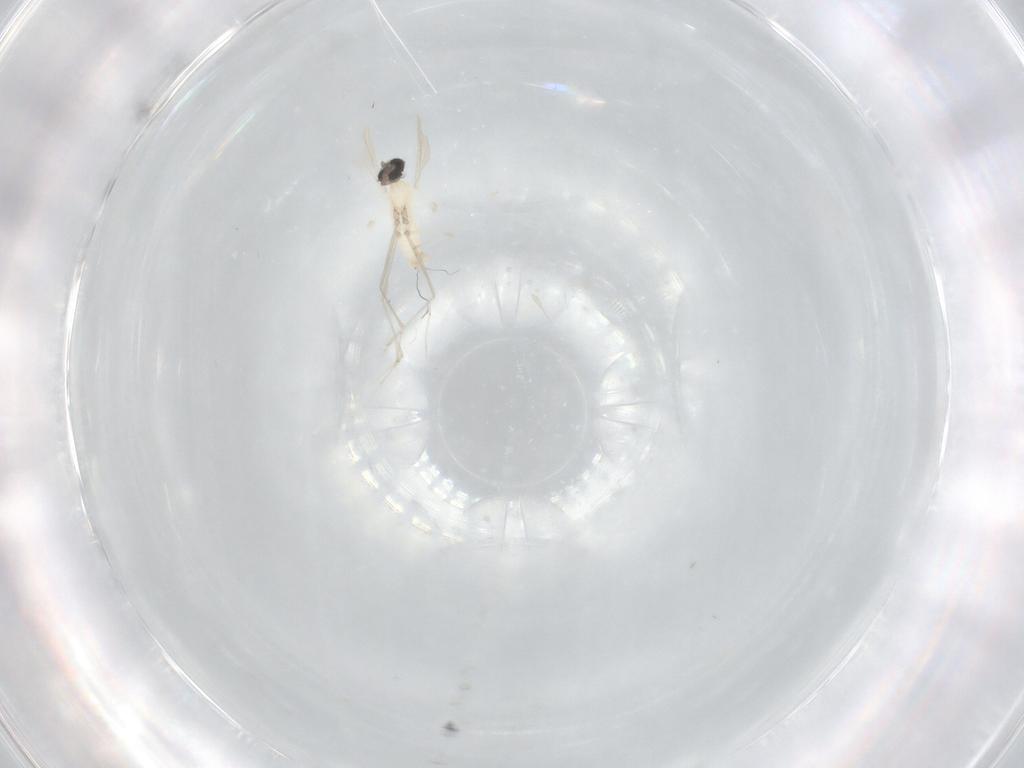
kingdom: Animalia
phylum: Arthropoda
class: Insecta
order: Diptera
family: Cecidomyiidae
